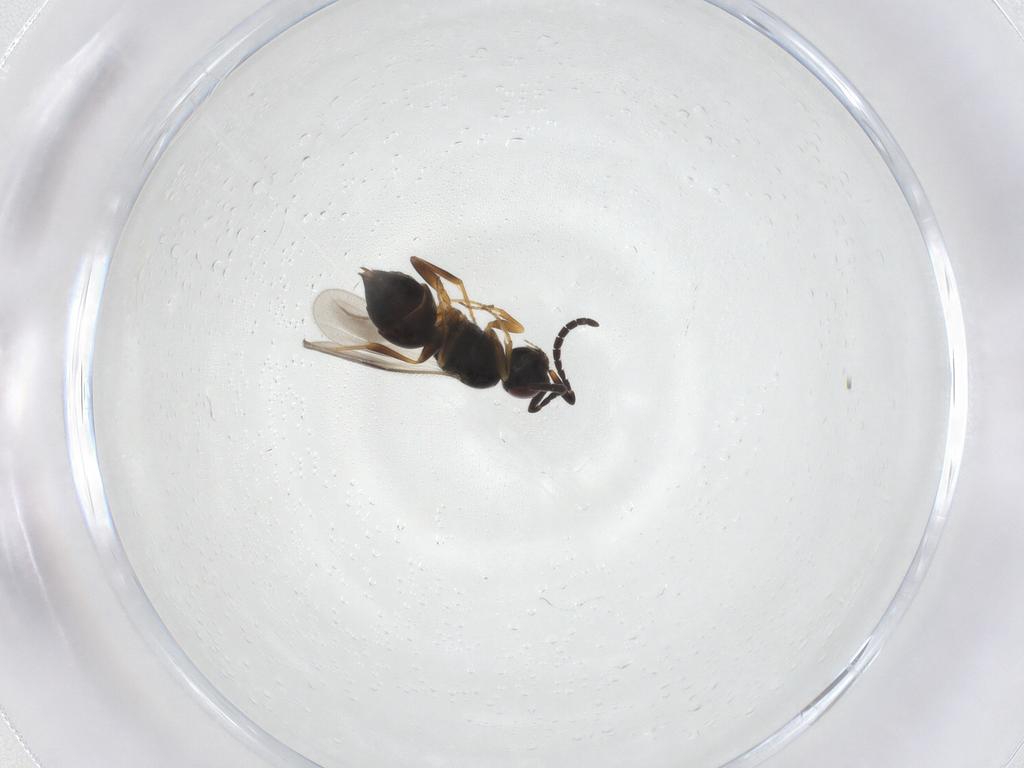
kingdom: Animalia
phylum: Arthropoda
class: Insecta
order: Hymenoptera
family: Megaspilidae
